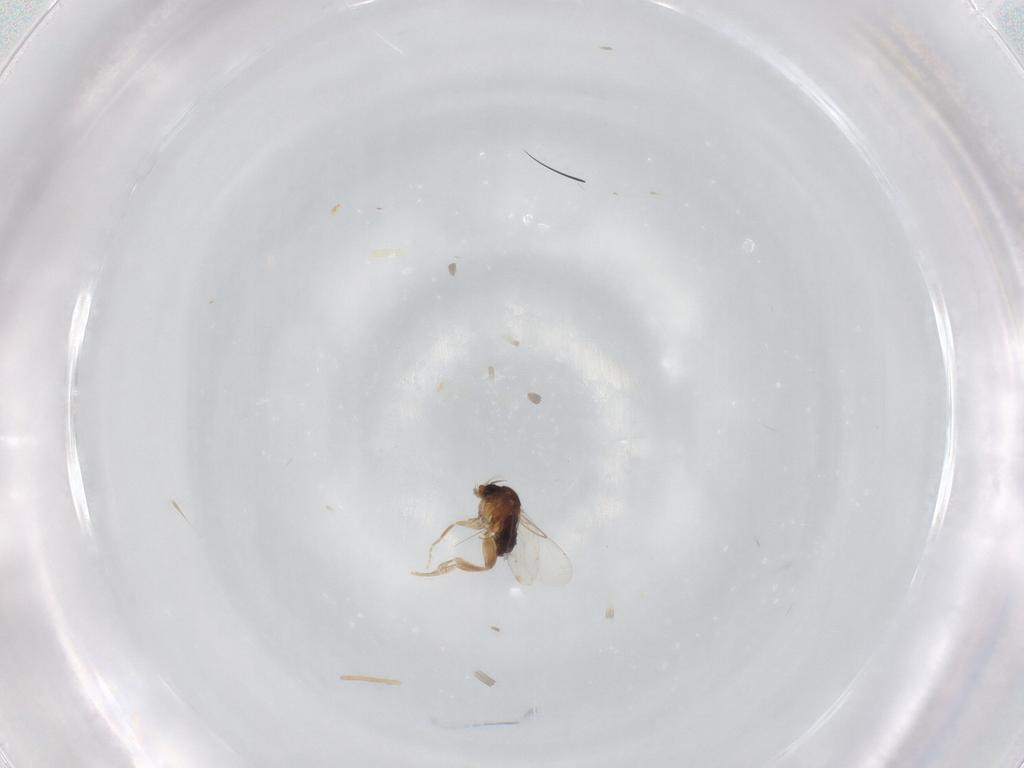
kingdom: Animalia
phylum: Arthropoda
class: Insecta
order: Diptera
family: Phoridae
